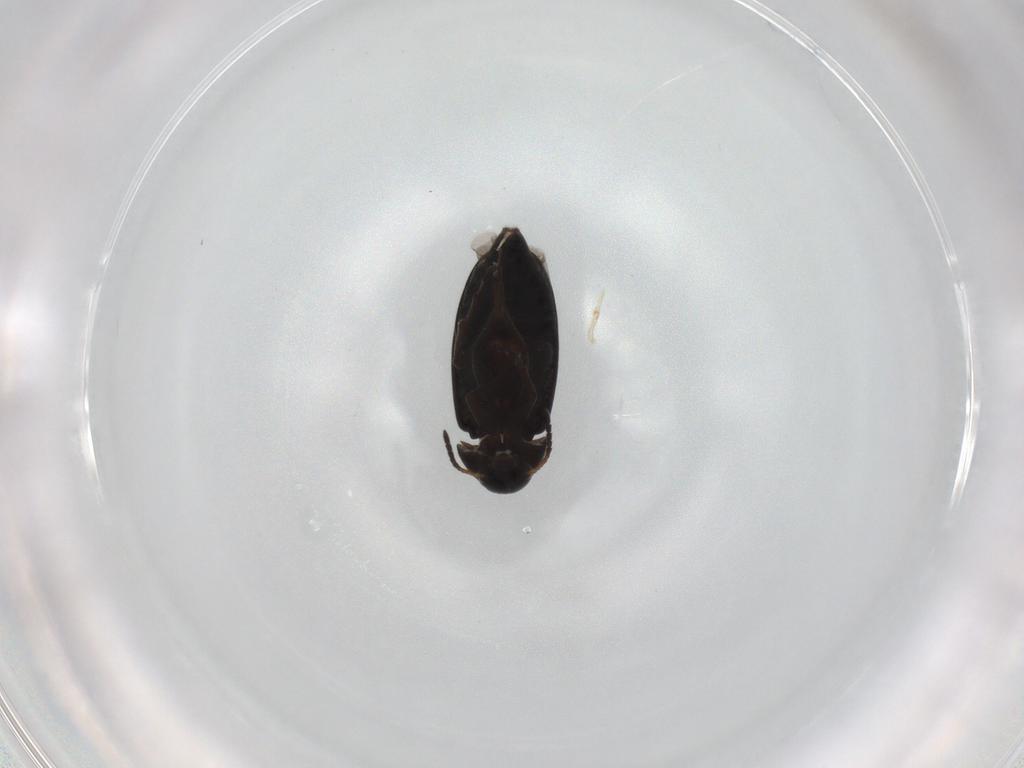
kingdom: Animalia
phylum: Arthropoda
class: Insecta
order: Coleoptera
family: Scraptiidae
